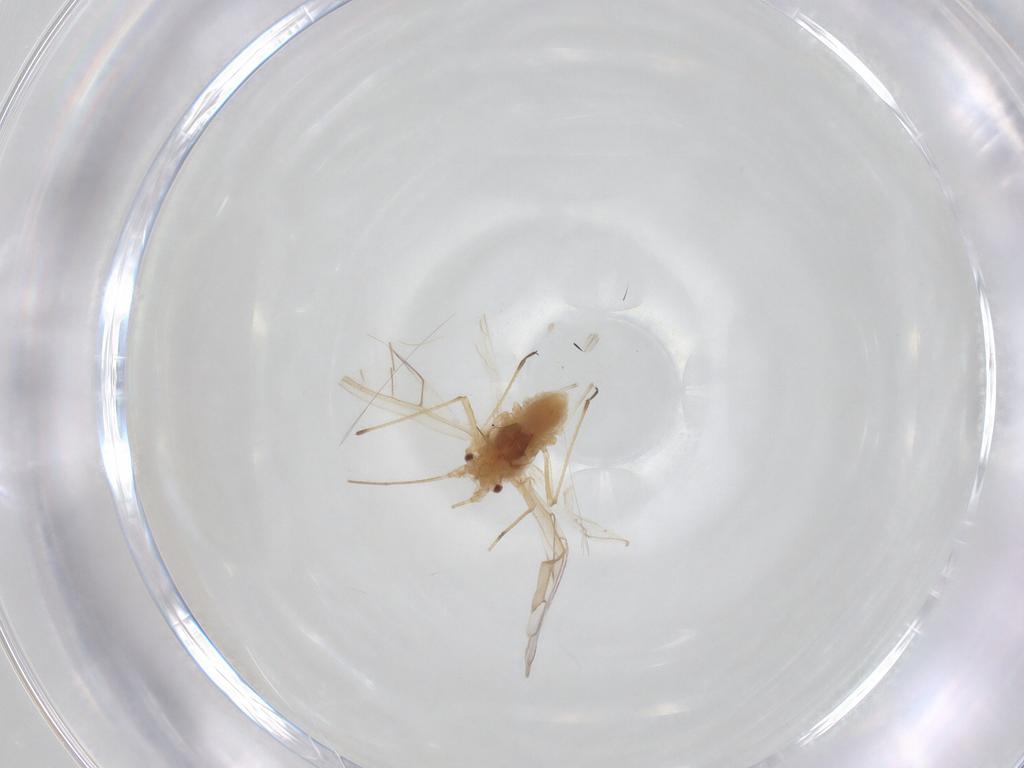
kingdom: Animalia
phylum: Arthropoda
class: Insecta
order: Hemiptera
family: Aphididae
